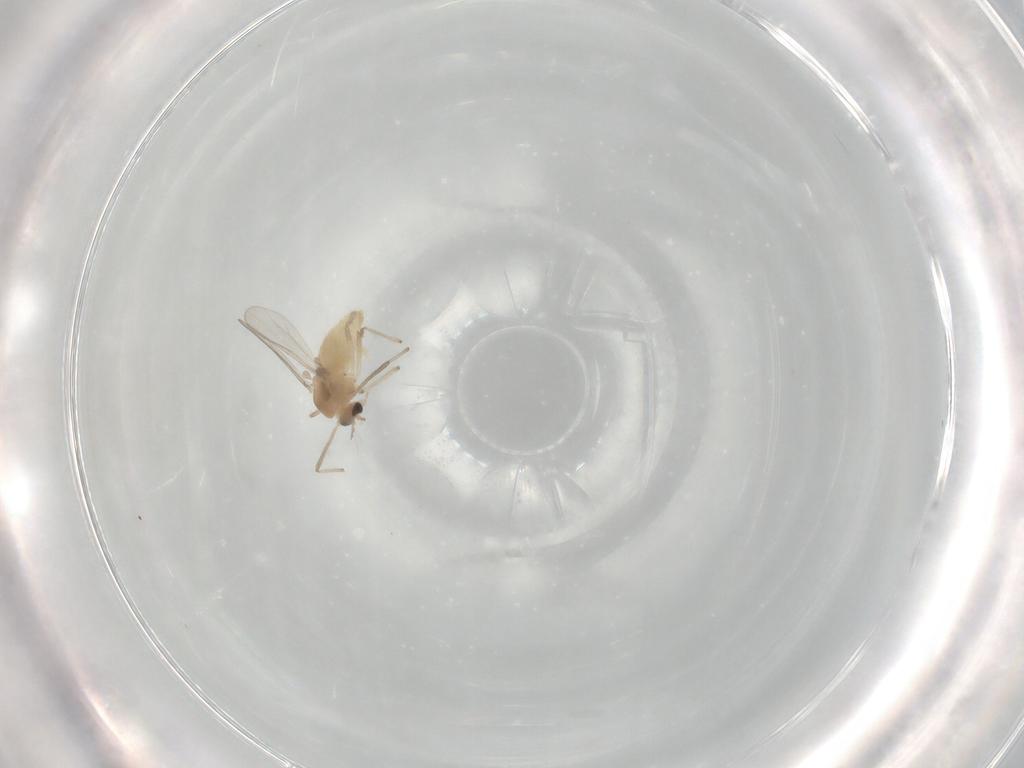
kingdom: Animalia
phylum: Arthropoda
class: Insecta
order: Diptera
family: Chironomidae
